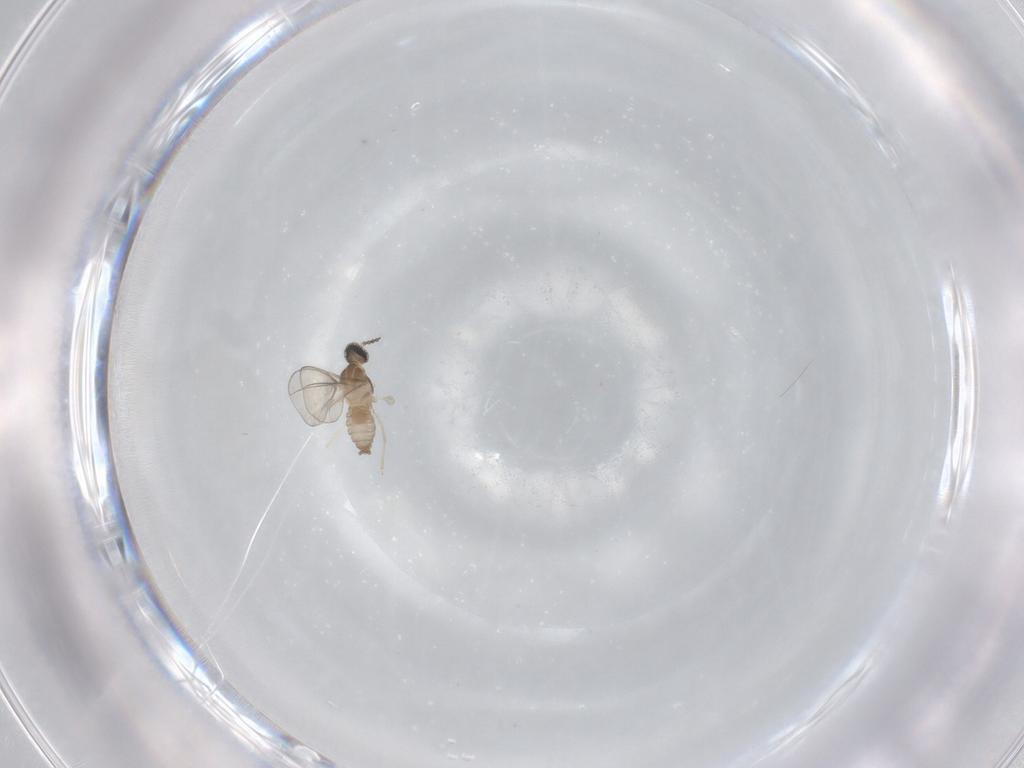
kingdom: Animalia
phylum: Arthropoda
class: Insecta
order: Diptera
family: Cecidomyiidae
